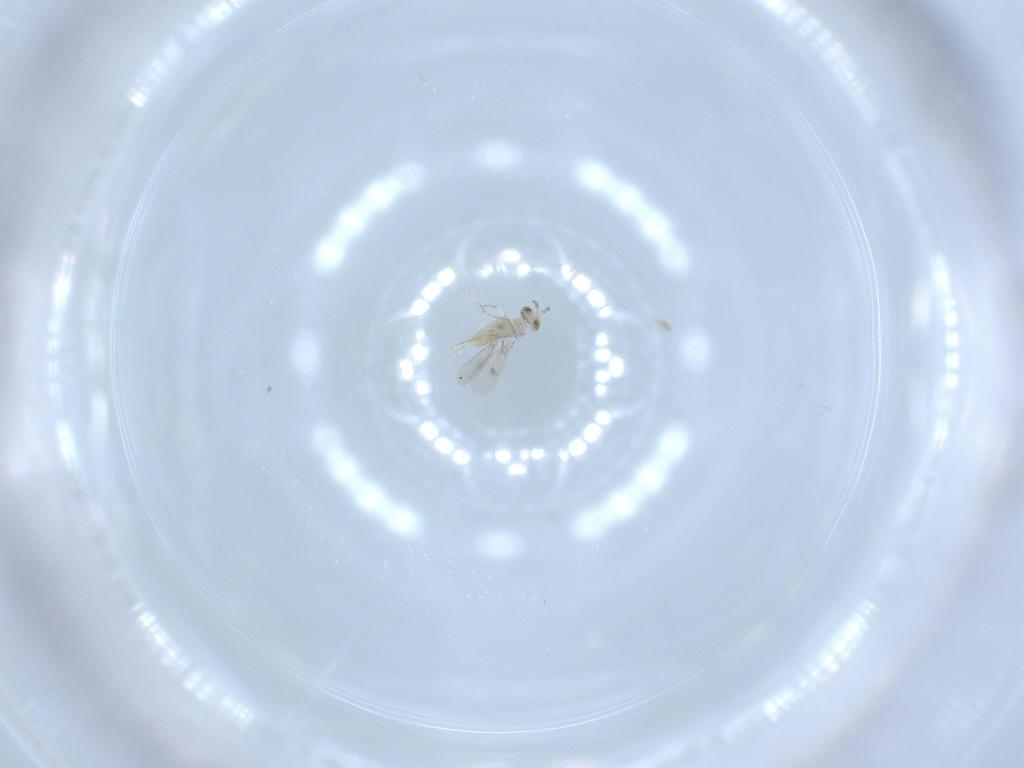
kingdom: Animalia
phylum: Arthropoda
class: Insecta
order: Hymenoptera
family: Aphelinidae
